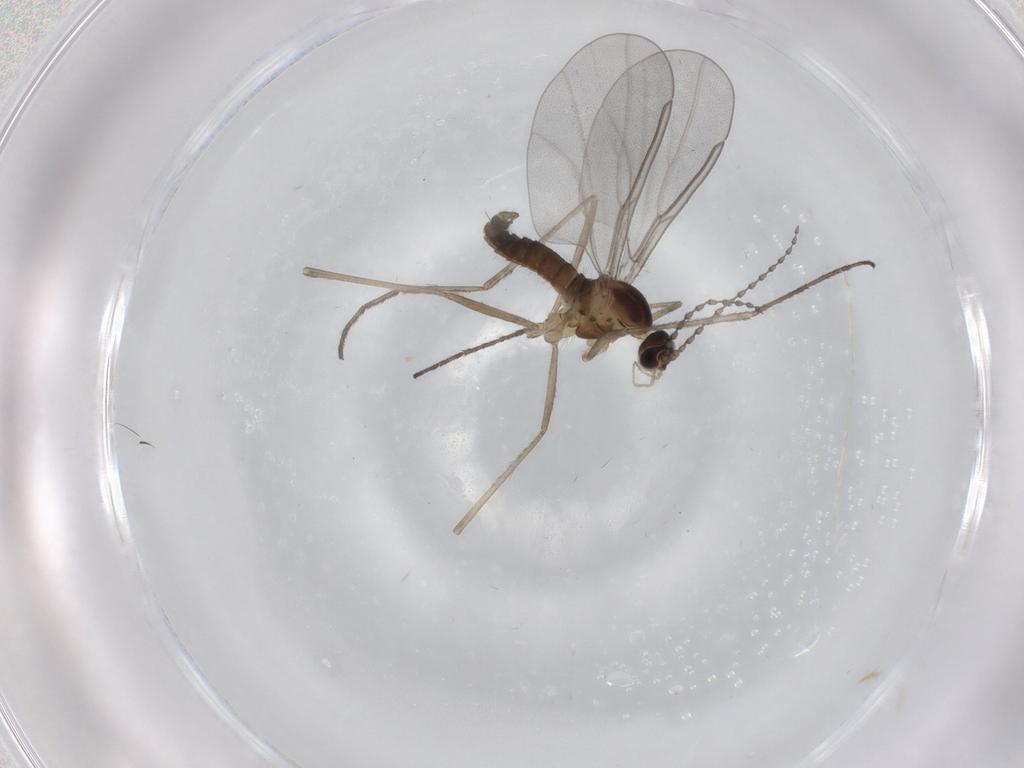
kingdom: Animalia
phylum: Arthropoda
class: Insecta
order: Diptera
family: Chironomidae
